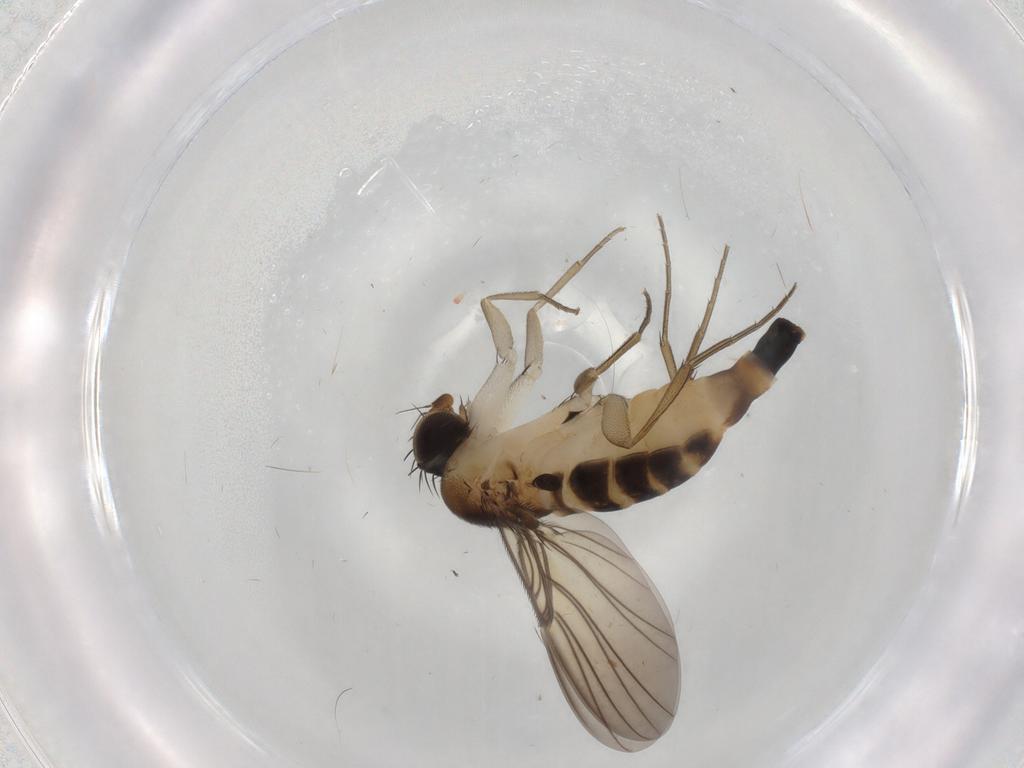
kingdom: Animalia
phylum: Arthropoda
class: Insecta
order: Diptera
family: Phoridae
